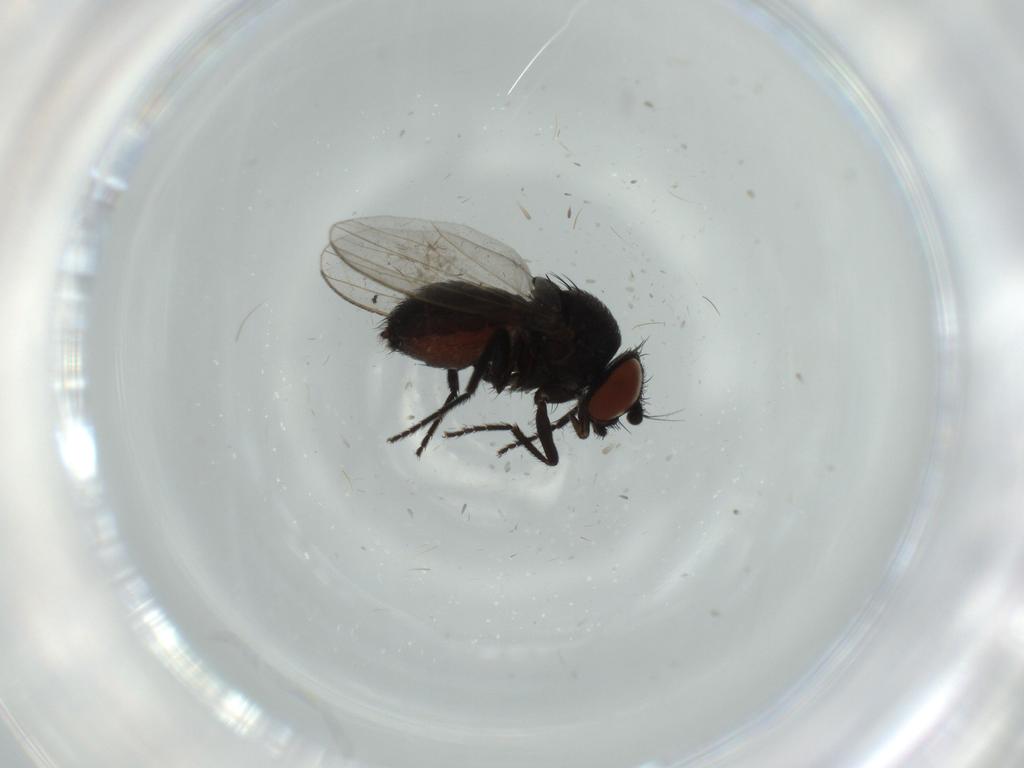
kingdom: Animalia
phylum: Arthropoda
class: Insecta
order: Diptera
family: Milichiidae
